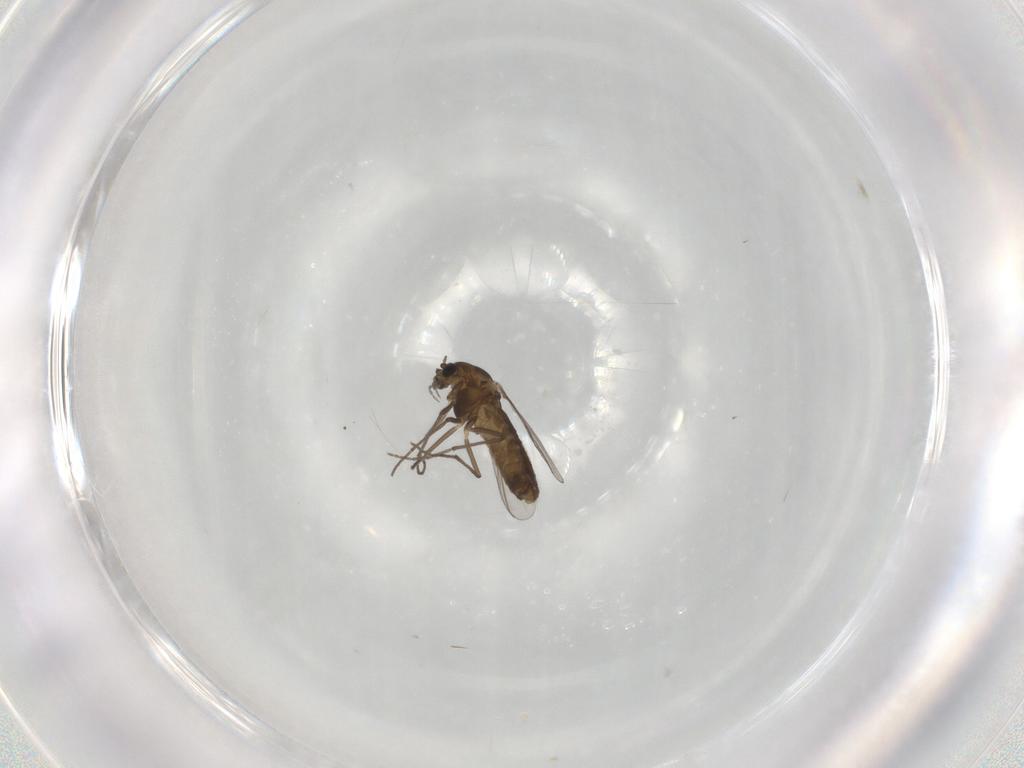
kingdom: Animalia
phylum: Arthropoda
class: Insecta
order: Diptera
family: Chironomidae
